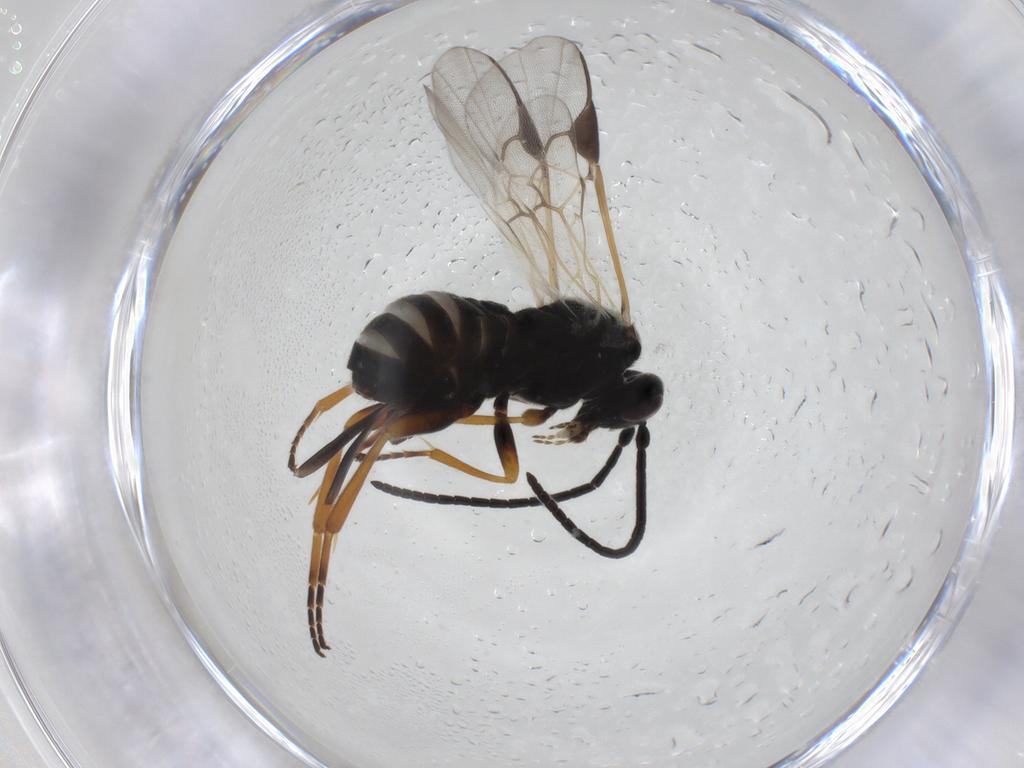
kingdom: Animalia
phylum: Arthropoda
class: Insecta
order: Hymenoptera
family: Braconidae
